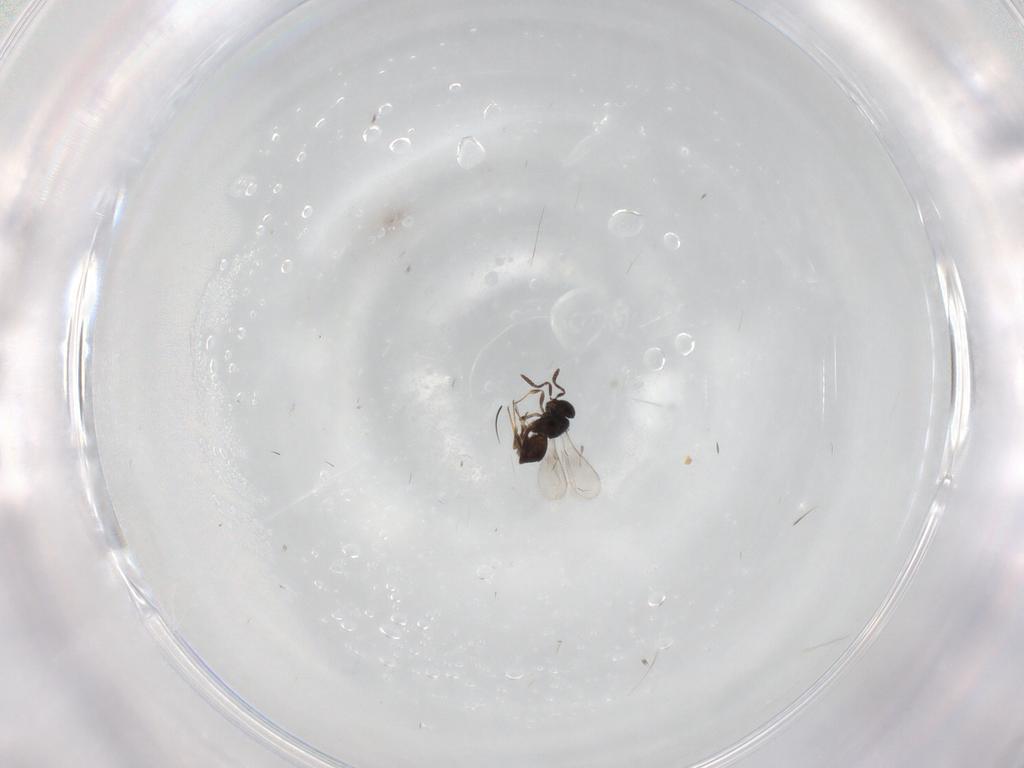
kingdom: Animalia
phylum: Arthropoda
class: Insecta
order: Hymenoptera
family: Scelionidae
